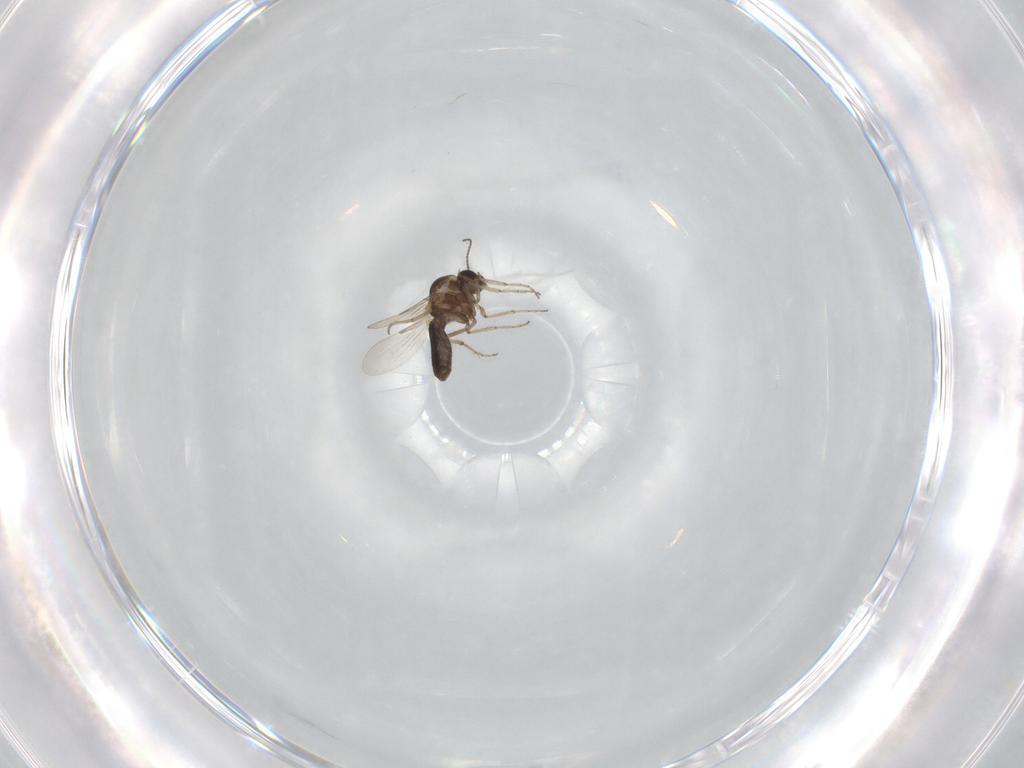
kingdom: Animalia
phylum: Arthropoda
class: Insecta
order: Diptera
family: Ceratopogonidae
